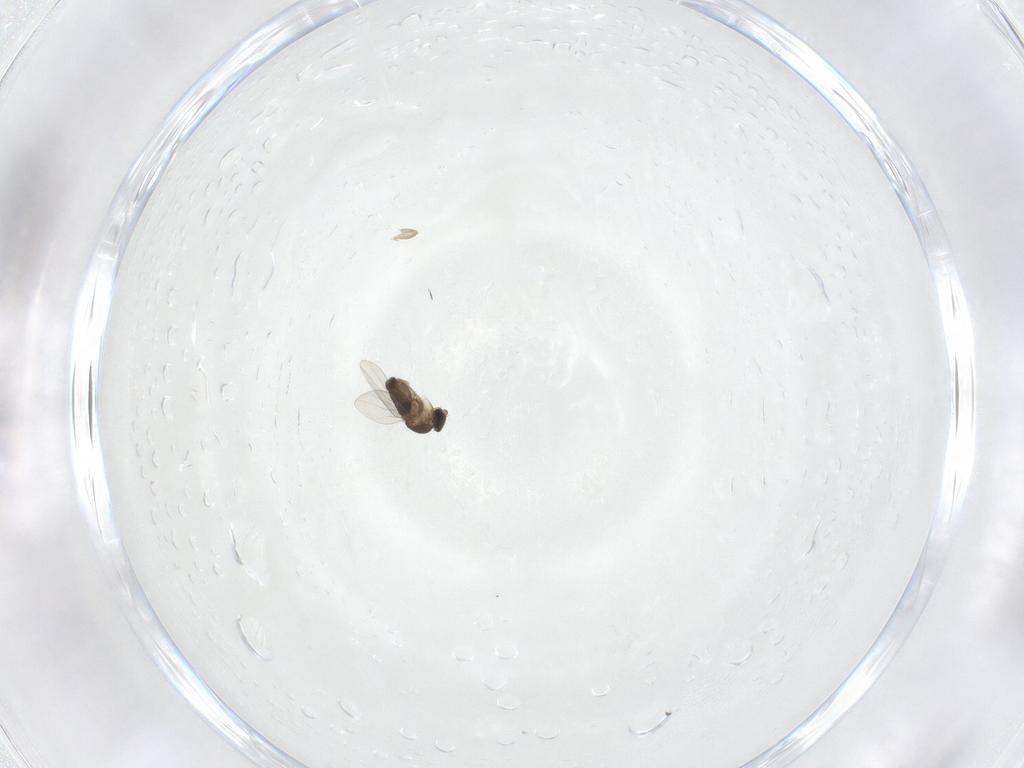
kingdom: Animalia
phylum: Arthropoda
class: Insecta
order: Diptera
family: Phoridae
